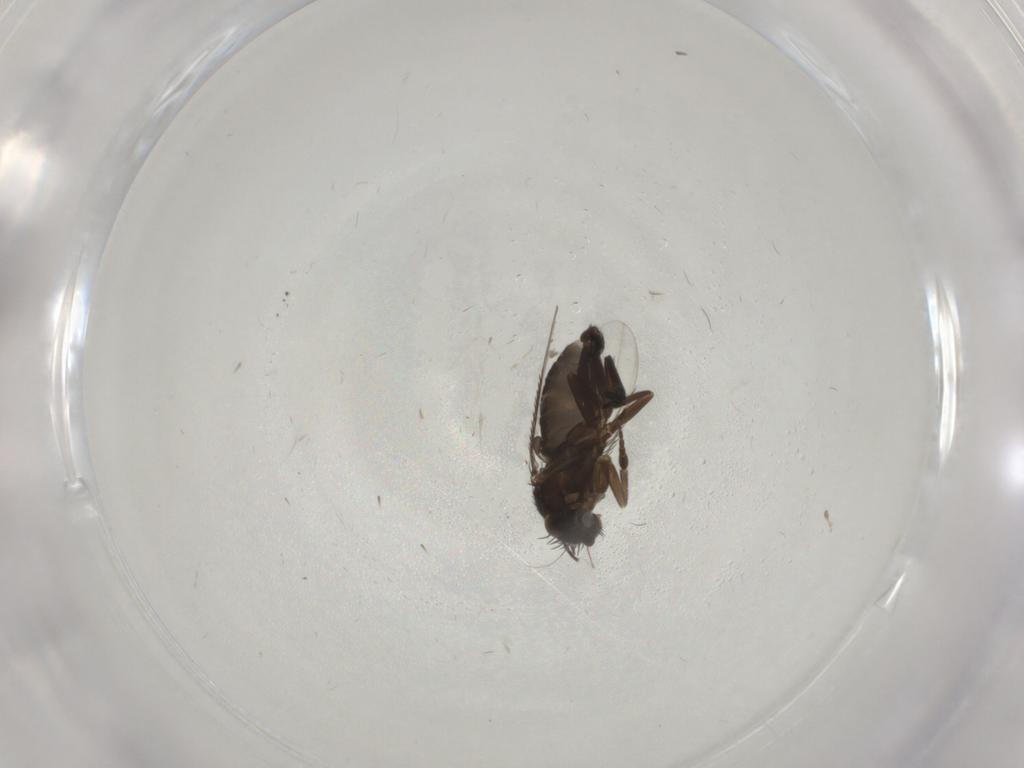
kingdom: Animalia
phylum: Arthropoda
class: Insecta
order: Diptera
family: Phoridae
